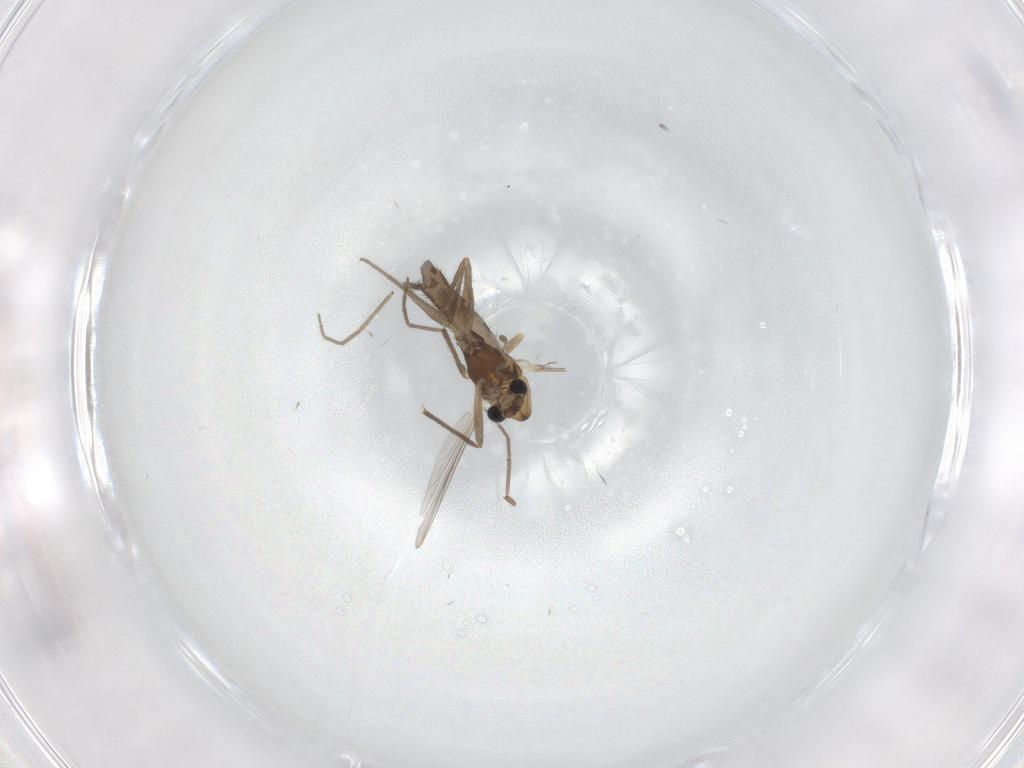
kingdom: Animalia
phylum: Arthropoda
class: Insecta
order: Diptera
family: Chironomidae
